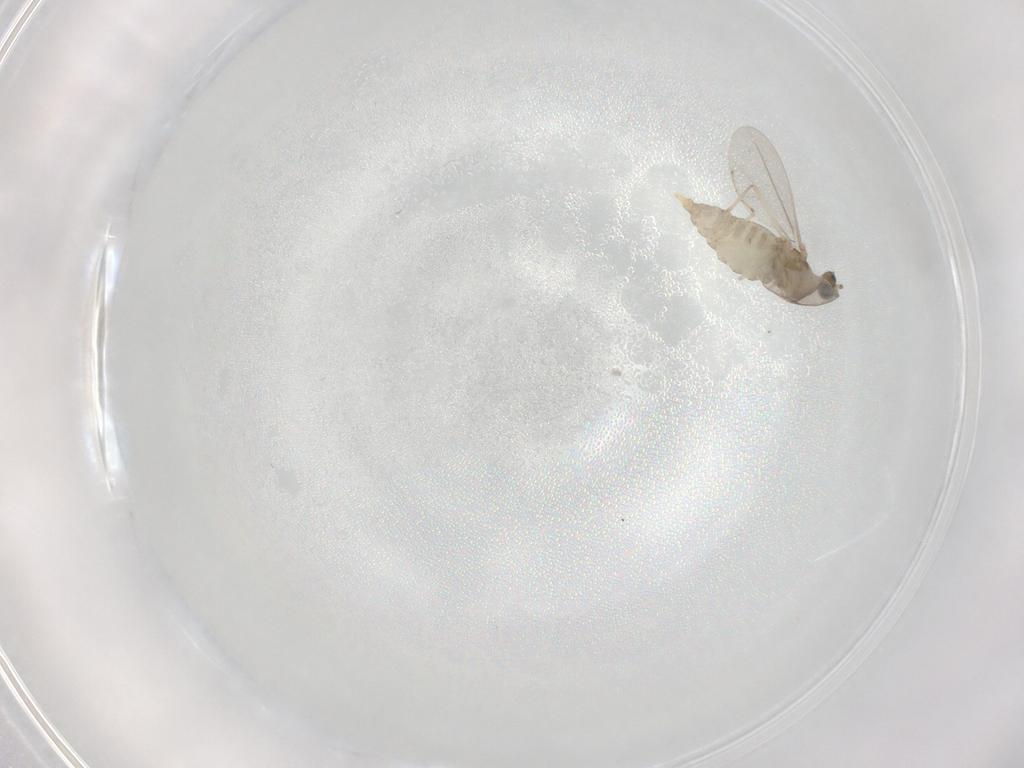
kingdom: Animalia
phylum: Arthropoda
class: Insecta
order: Diptera
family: Cecidomyiidae
